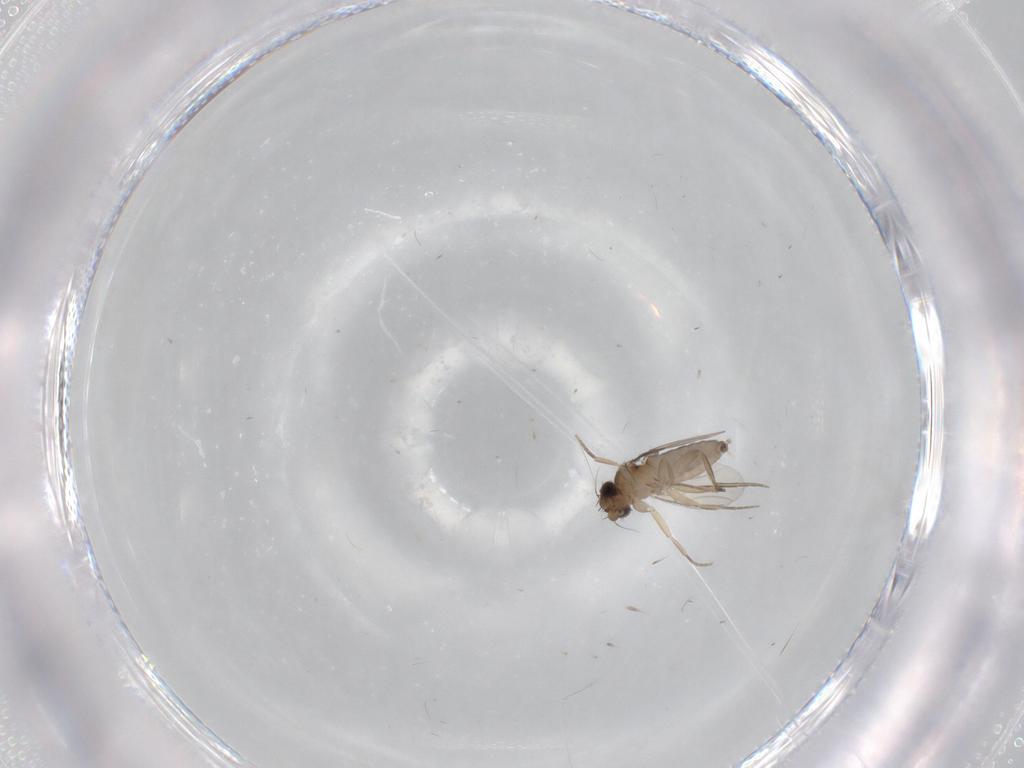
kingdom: Animalia
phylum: Arthropoda
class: Insecta
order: Diptera
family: Phoridae
